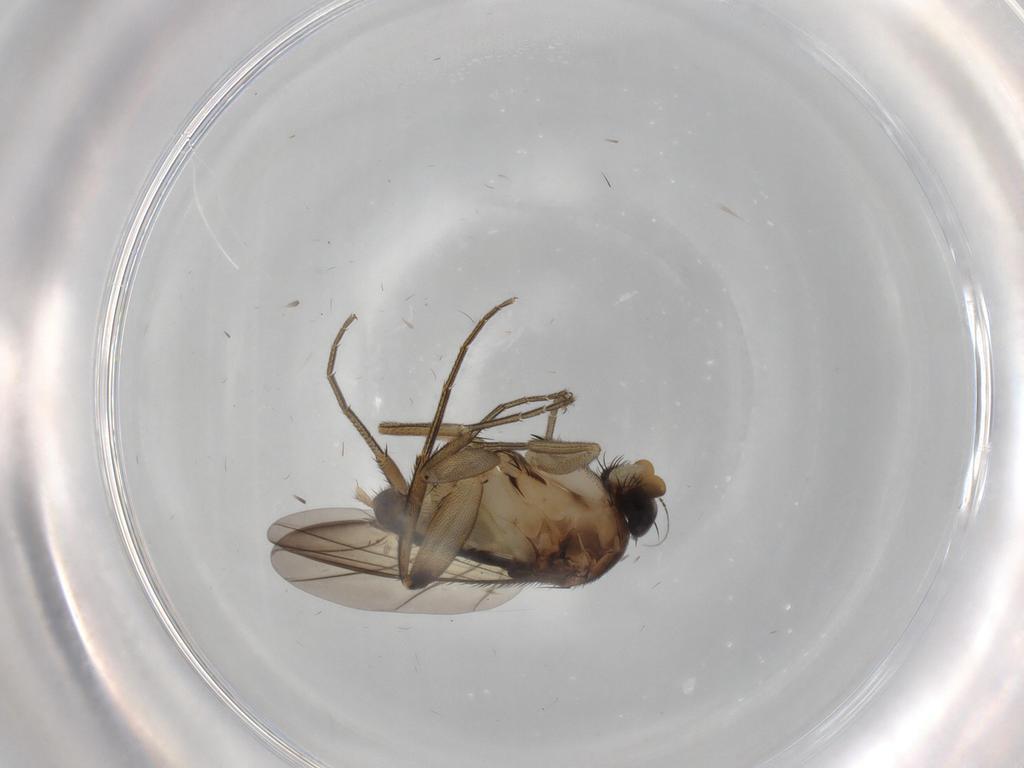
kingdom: Animalia
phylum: Arthropoda
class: Insecta
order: Diptera
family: Phoridae
